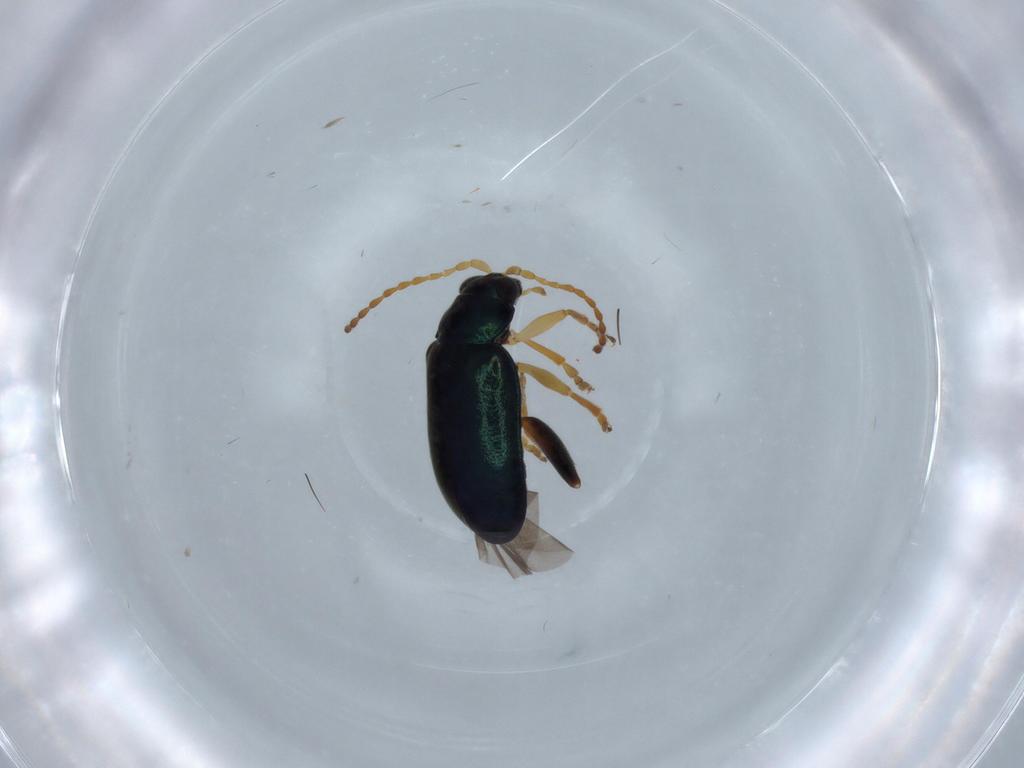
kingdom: Animalia
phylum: Arthropoda
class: Insecta
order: Coleoptera
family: Chrysomelidae
